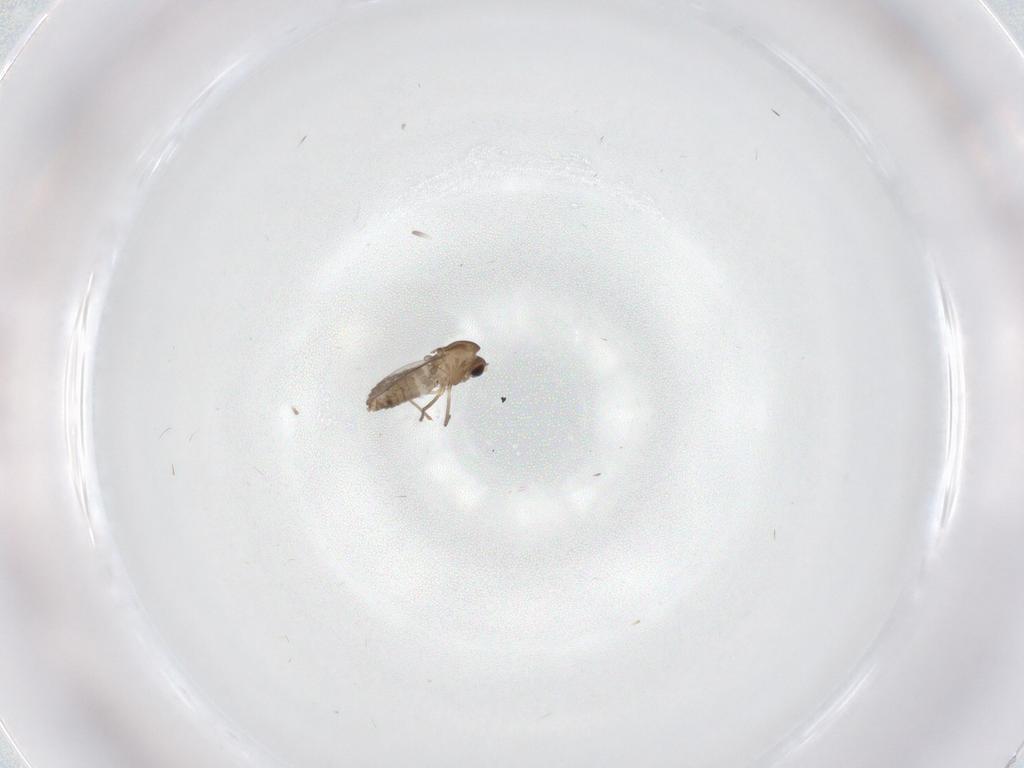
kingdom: Animalia
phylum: Arthropoda
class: Insecta
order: Diptera
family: Chironomidae
